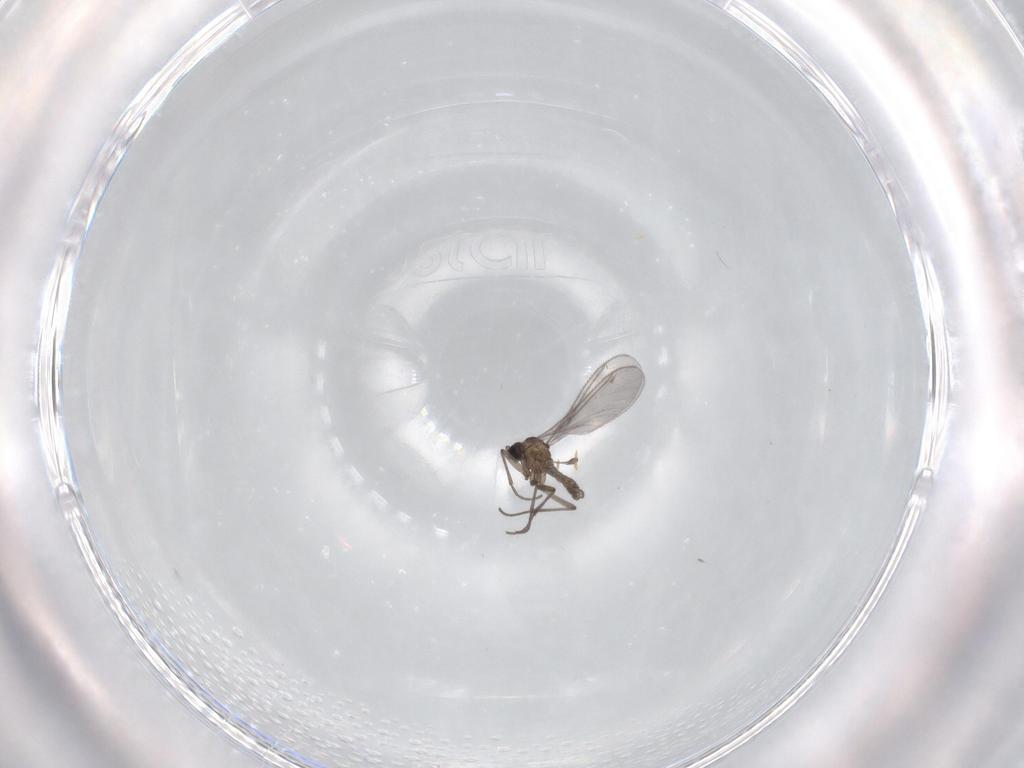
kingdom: Animalia
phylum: Arthropoda
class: Insecta
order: Diptera
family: Sciaridae
